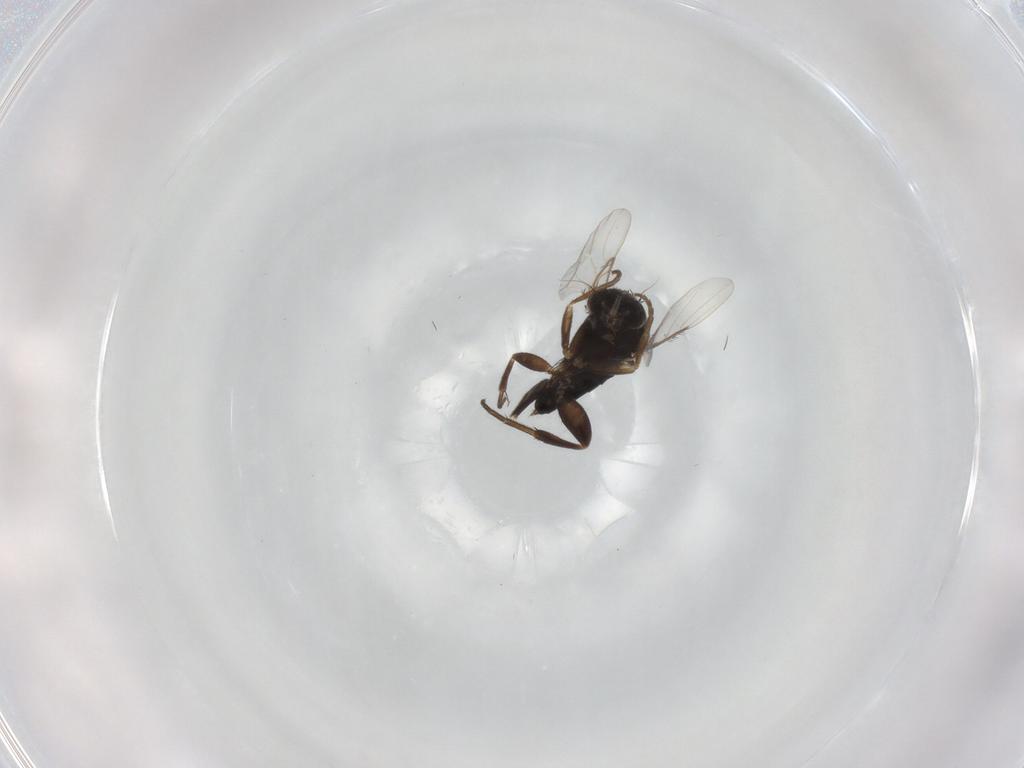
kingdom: Animalia
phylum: Arthropoda
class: Insecta
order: Diptera
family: Phoridae
